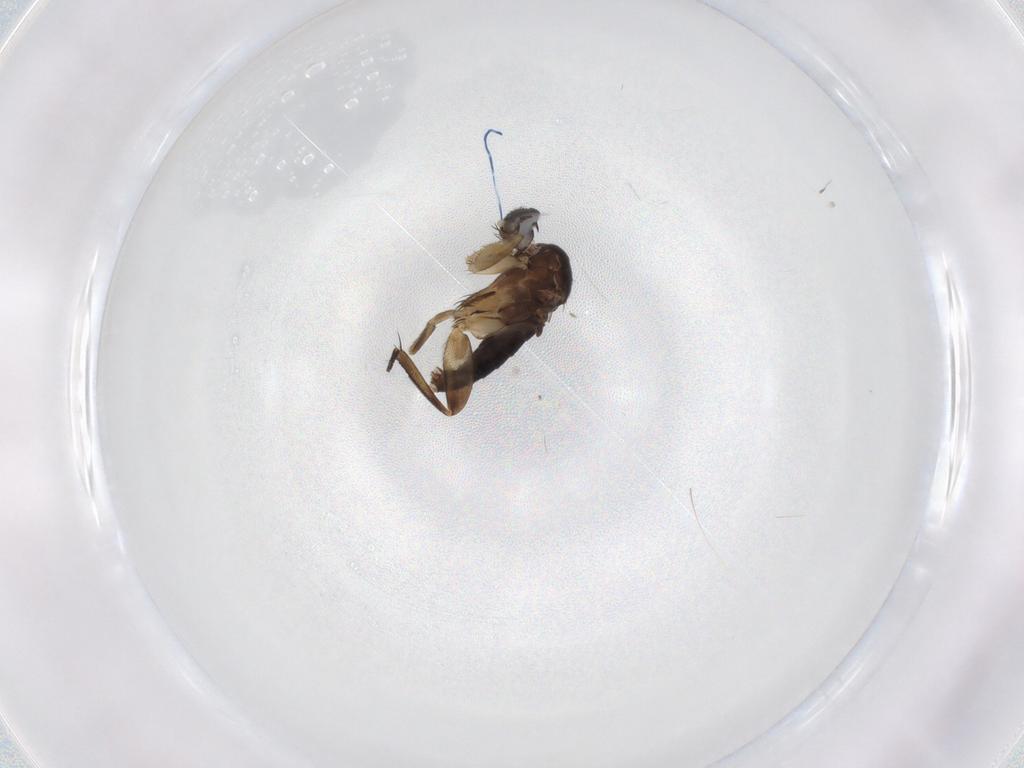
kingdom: Animalia
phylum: Arthropoda
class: Insecta
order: Diptera
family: Phoridae
